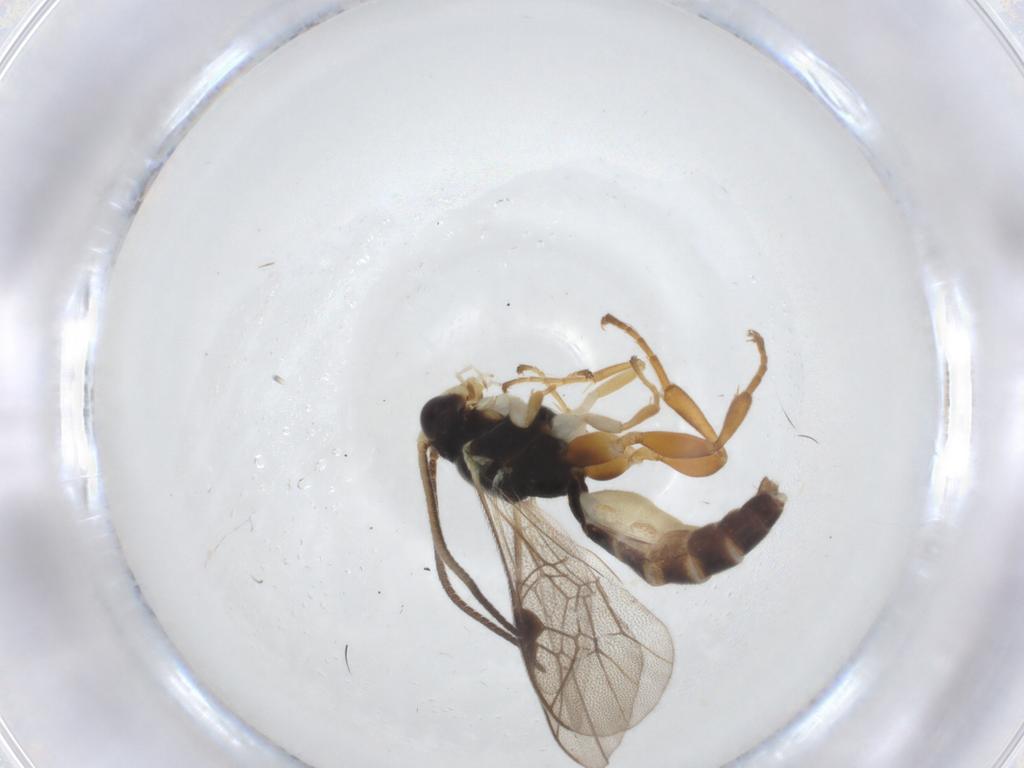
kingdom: Animalia
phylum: Arthropoda
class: Insecta
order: Hymenoptera
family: Ichneumonidae
